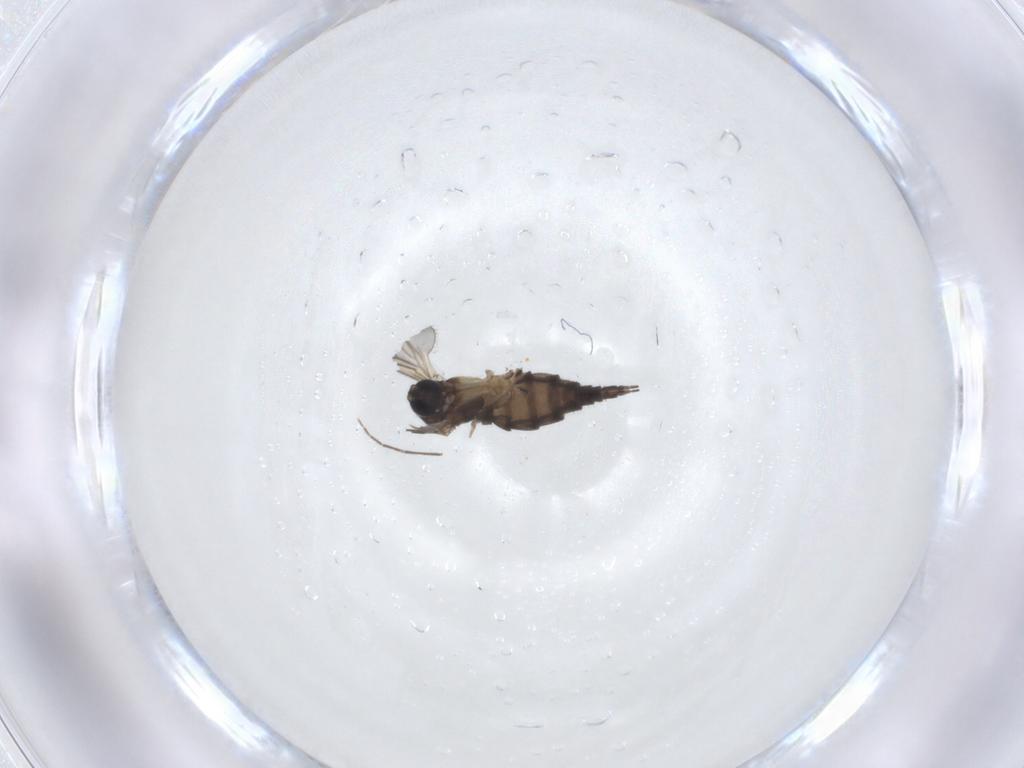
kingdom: Animalia
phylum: Arthropoda
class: Insecta
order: Diptera
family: Sciaridae
